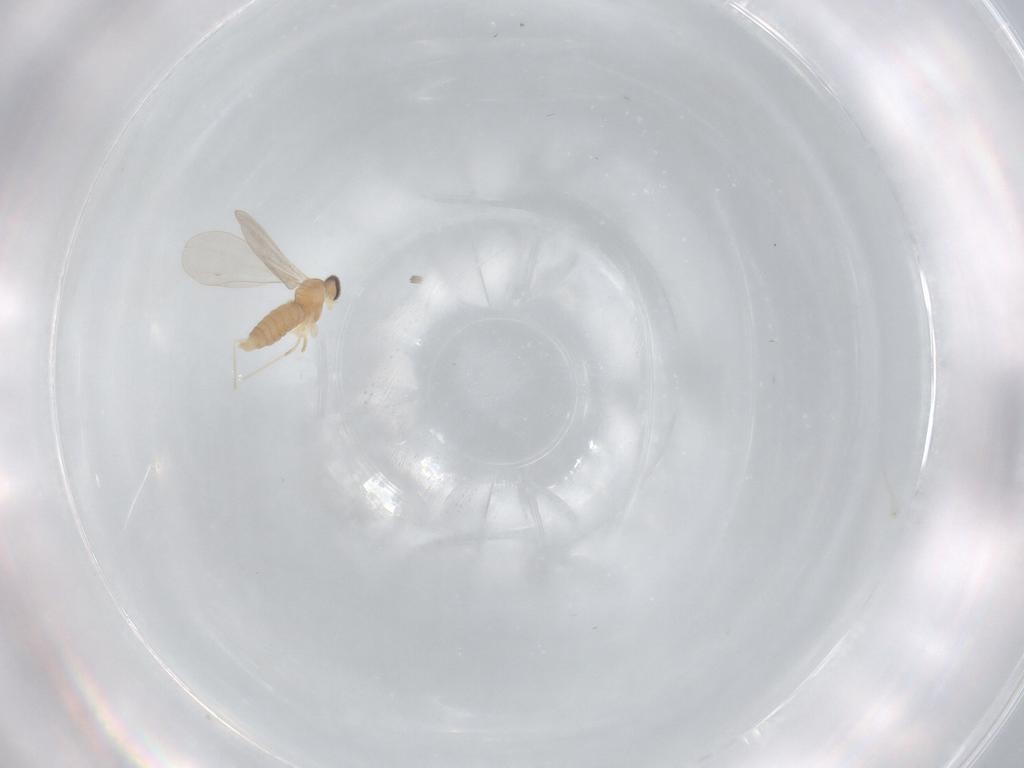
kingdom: Animalia
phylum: Arthropoda
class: Insecta
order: Diptera
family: Cecidomyiidae
